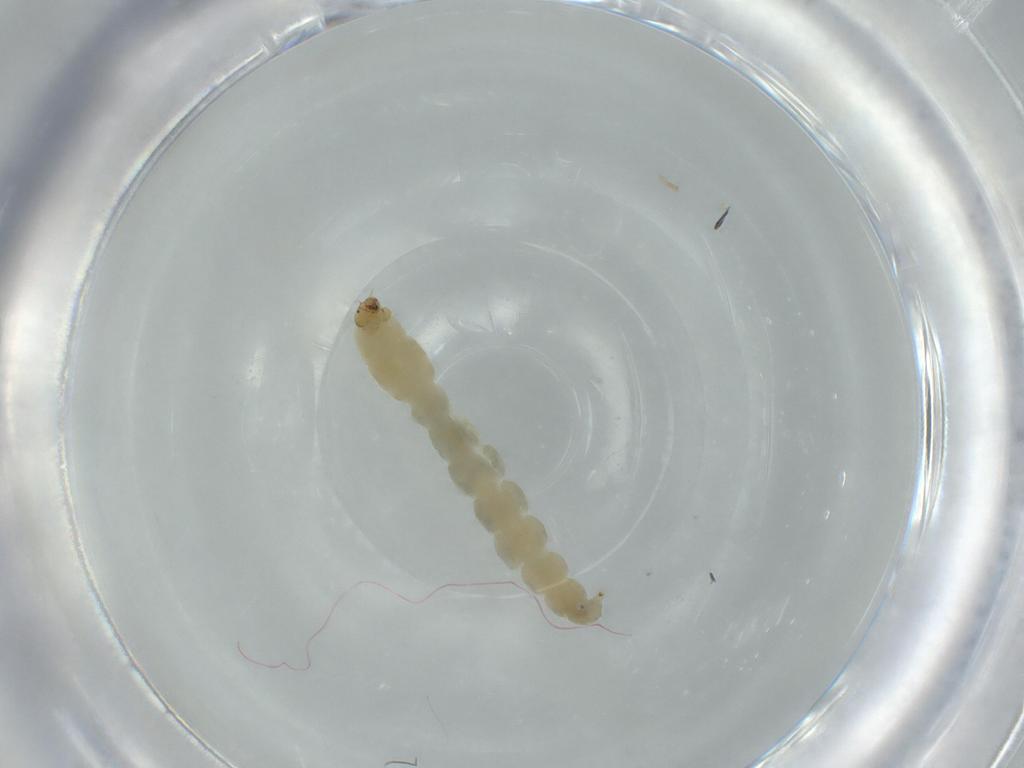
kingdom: Animalia
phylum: Arthropoda
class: Insecta
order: Diptera
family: Chironomidae
